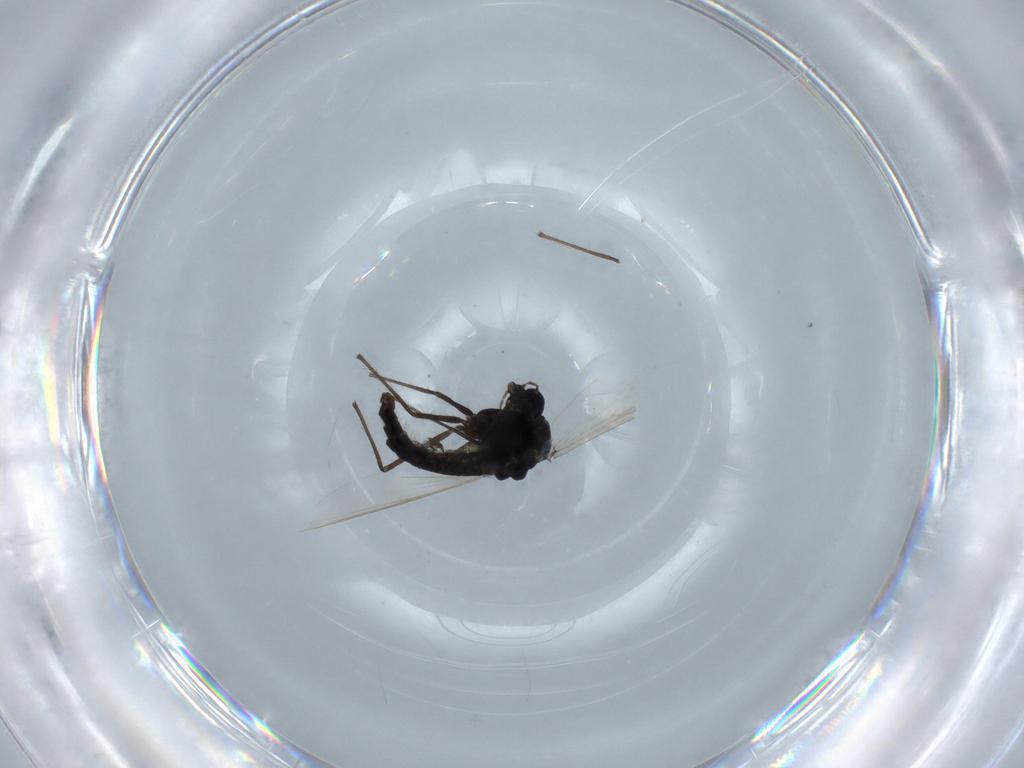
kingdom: Animalia
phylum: Arthropoda
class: Insecta
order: Diptera
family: Chironomidae
